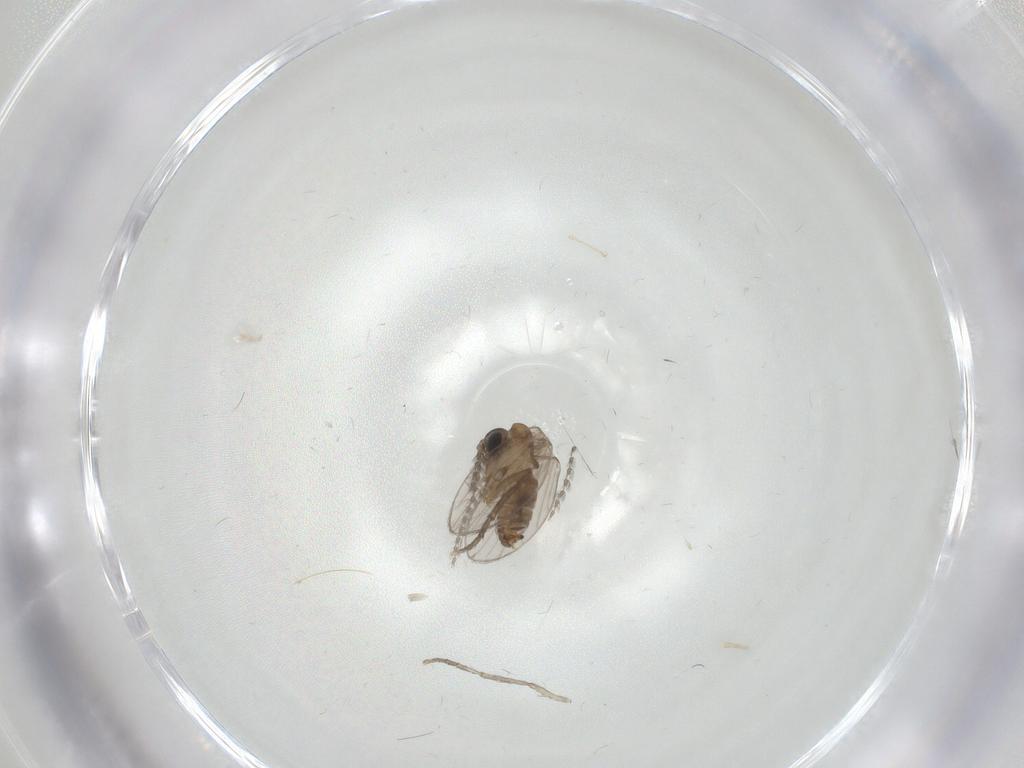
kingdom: Animalia
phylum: Arthropoda
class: Insecta
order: Diptera
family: Psychodidae
